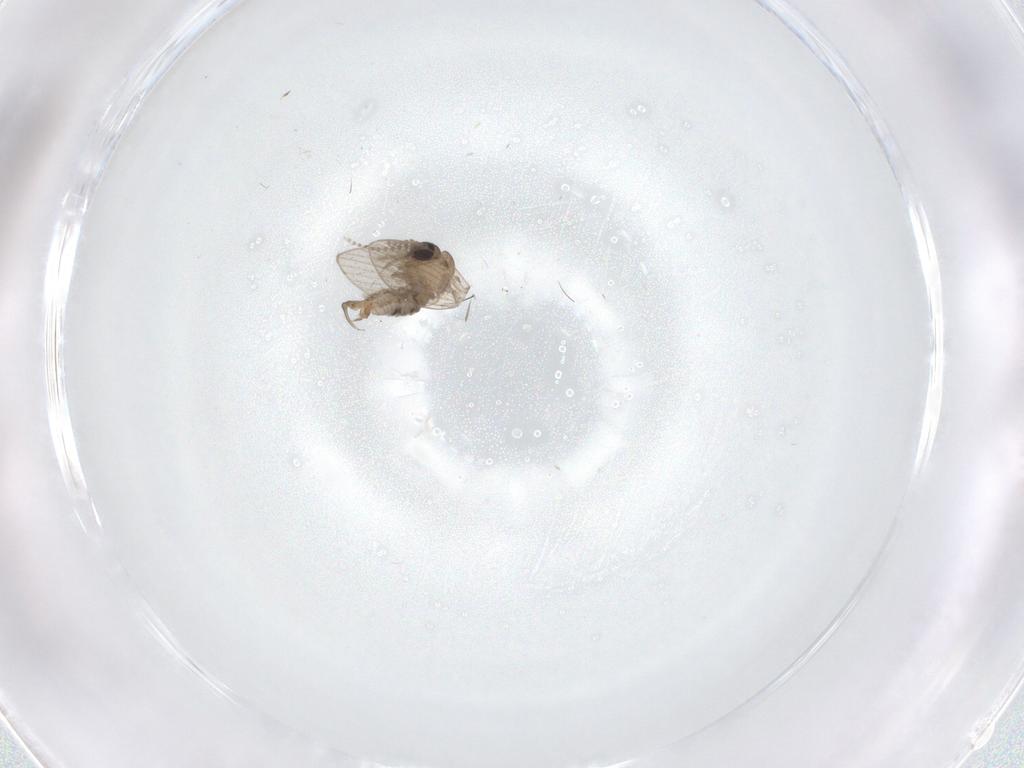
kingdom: Animalia
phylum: Arthropoda
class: Insecta
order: Diptera
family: Psychodidae
